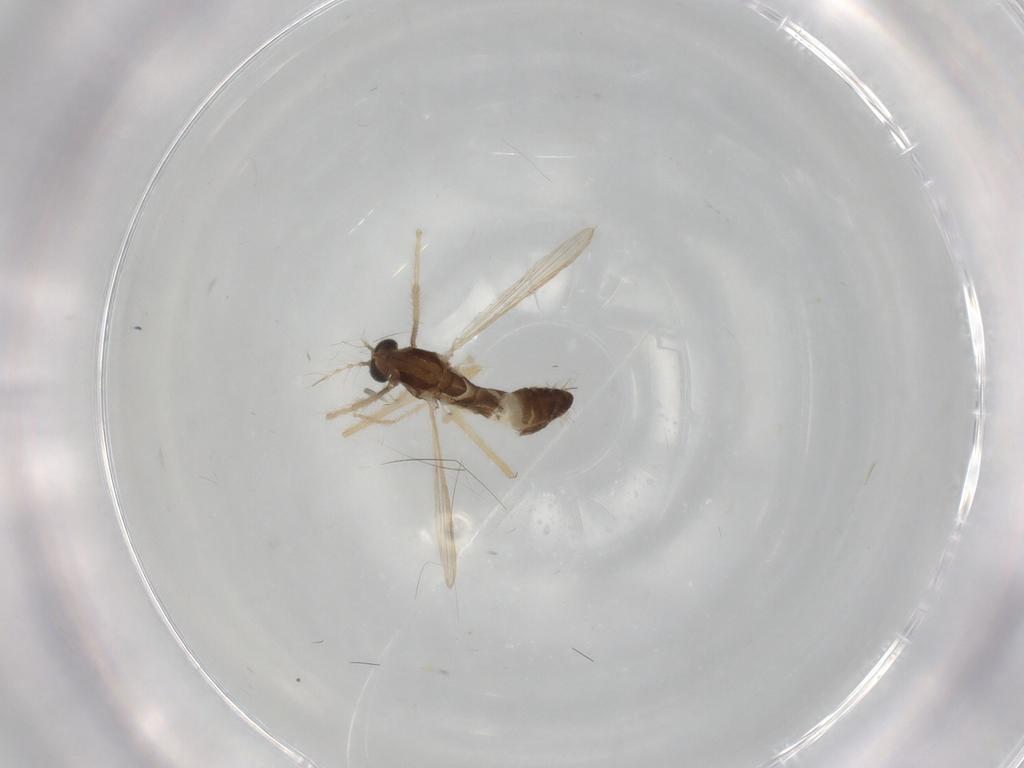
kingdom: Animalia
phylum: Arthropoda
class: Insecta
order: Diptera
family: Chironomidae
